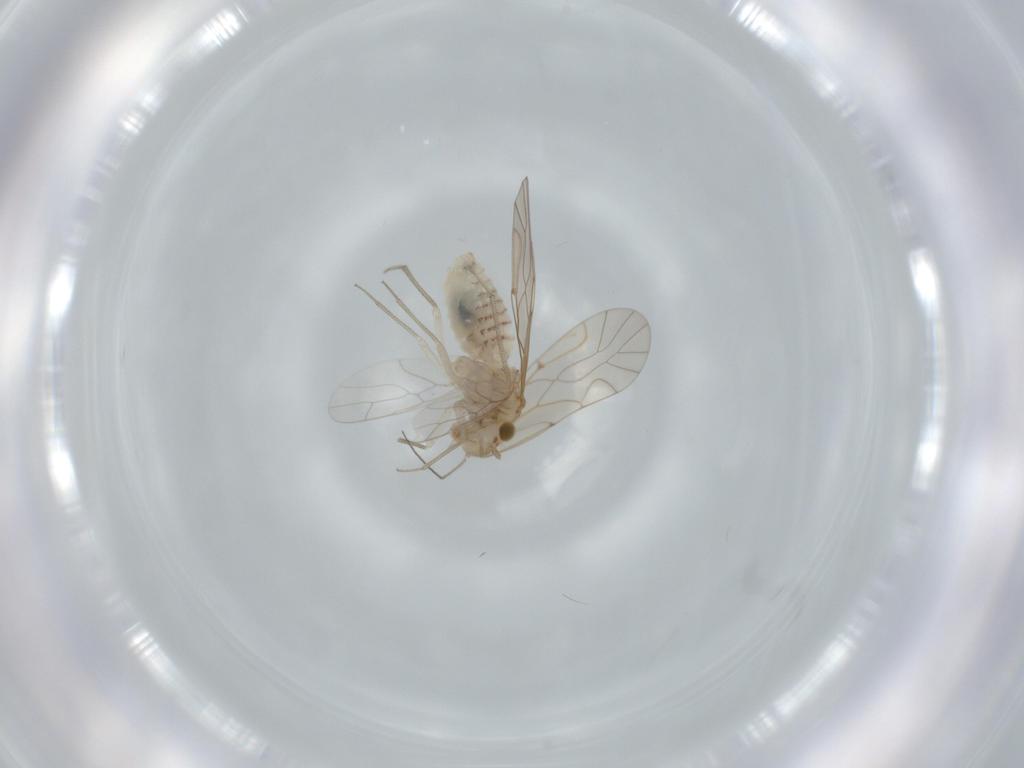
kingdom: Animalia
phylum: Arthropoda
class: Insecta
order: Psocodea
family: Lachesillidae
